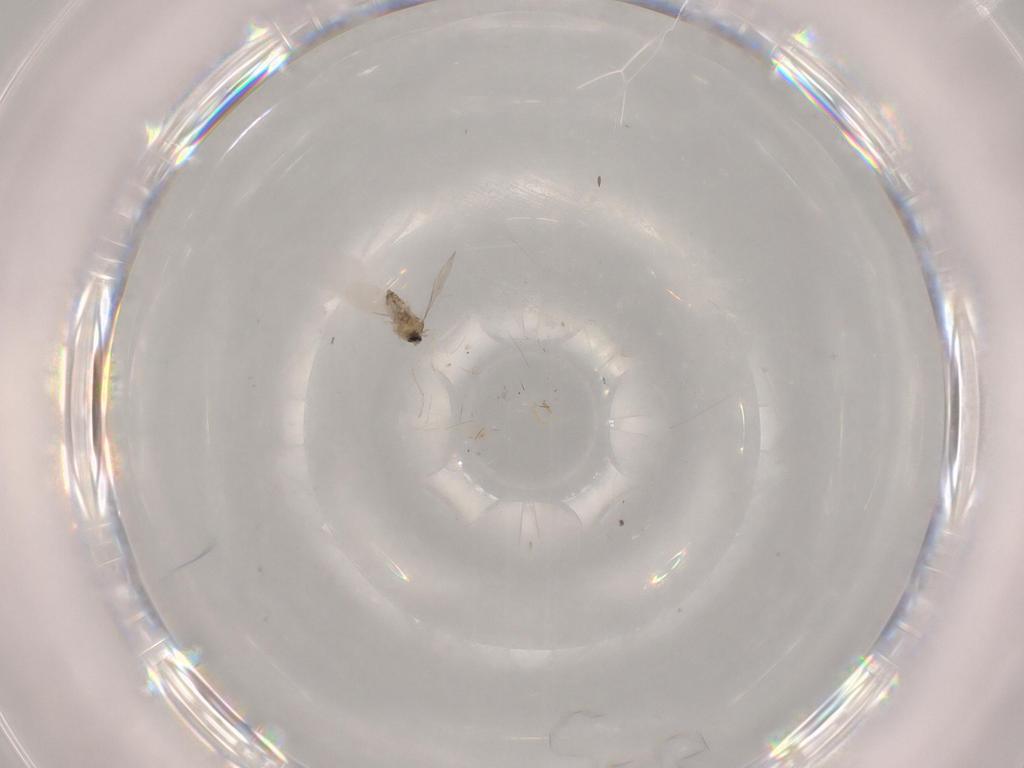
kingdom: Animalia
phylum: Arthropoda
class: Insecta
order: Diptera
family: Cecidomyiidae
